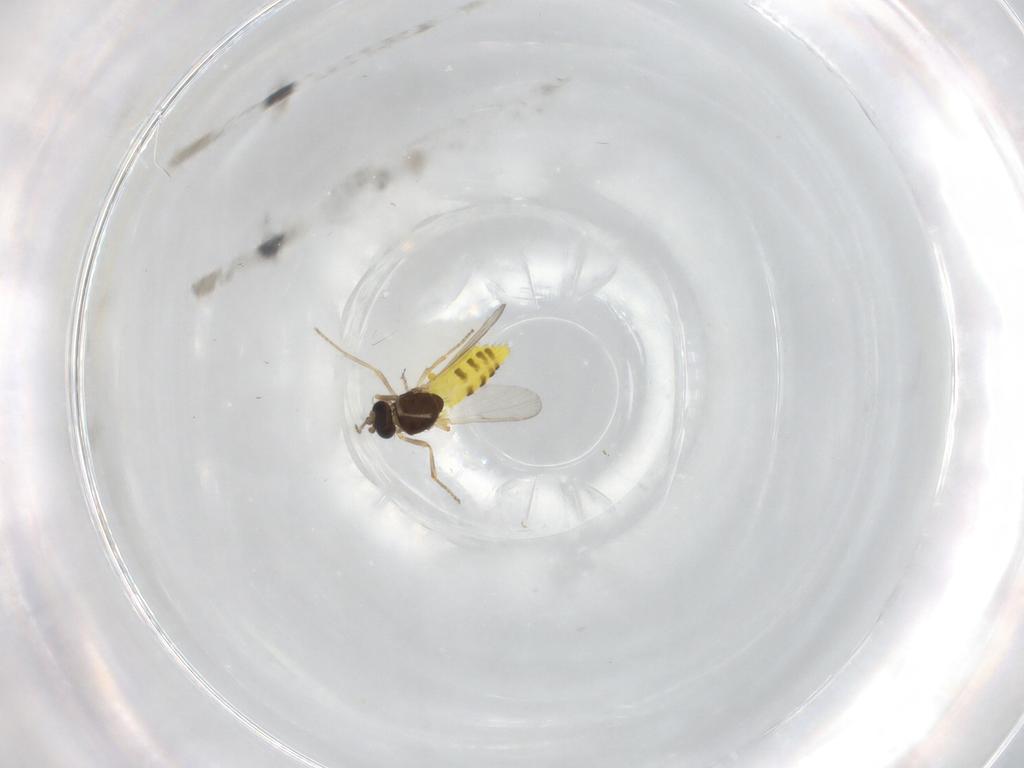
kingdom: Animalia
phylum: Arthropoda
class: Insecta
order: Diptera
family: Ceratopogonidae
